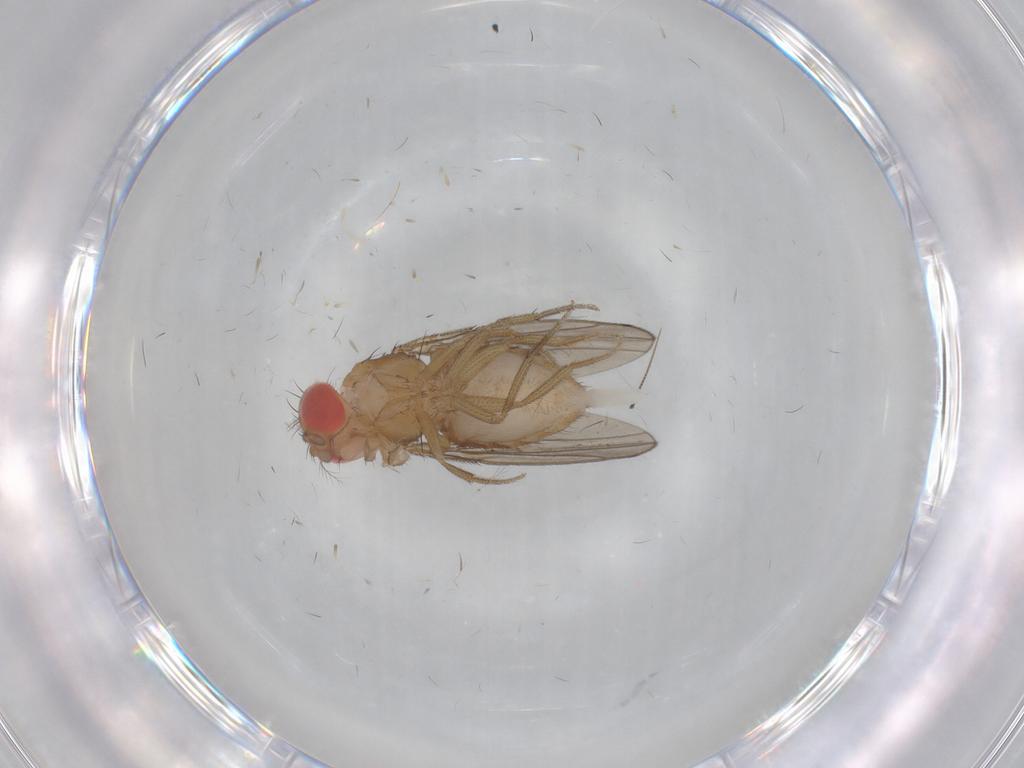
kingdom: Animalia
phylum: Arthropoda
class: Insecta
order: Diptera
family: Drosophilidae
